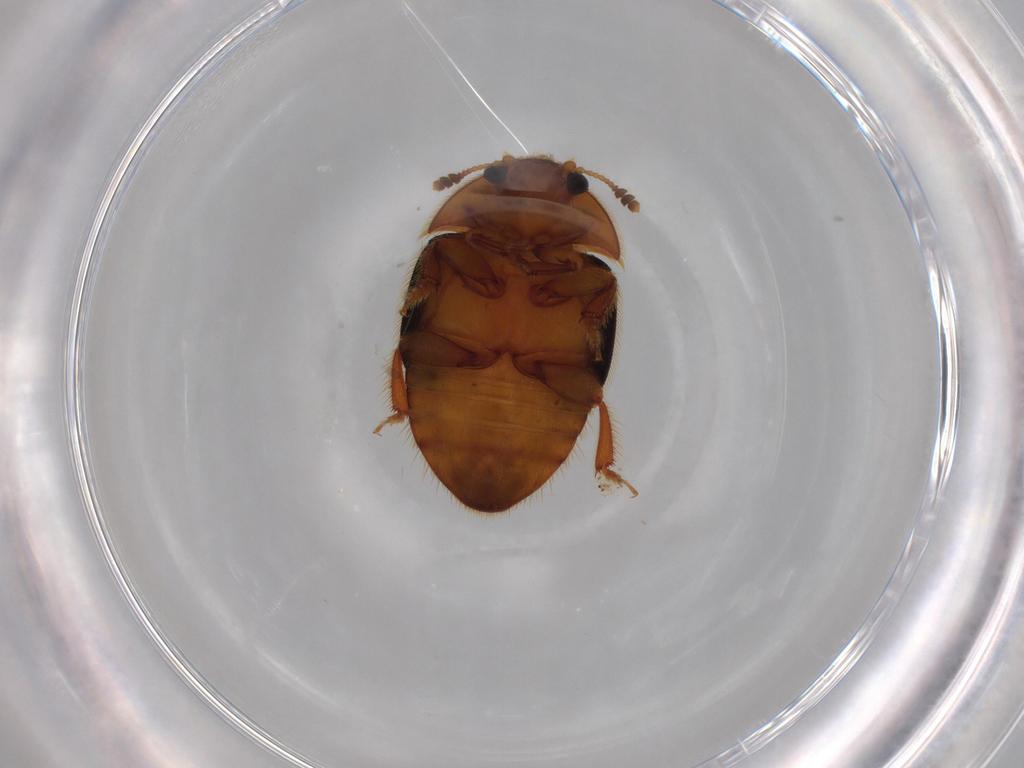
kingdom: Animalia
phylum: Arthropoda
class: Insecta
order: Coleoptera
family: Nitidulidae
